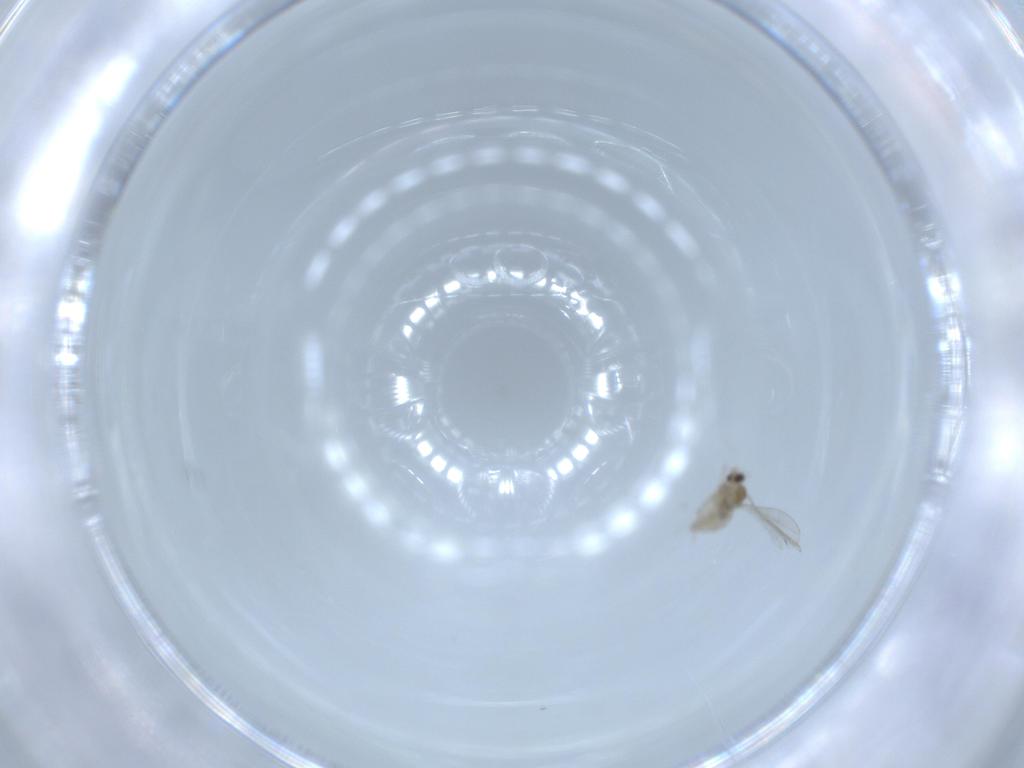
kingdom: Animalia
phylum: Arthropoda
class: Insecta
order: Diptera
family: Cecidomyiidae
